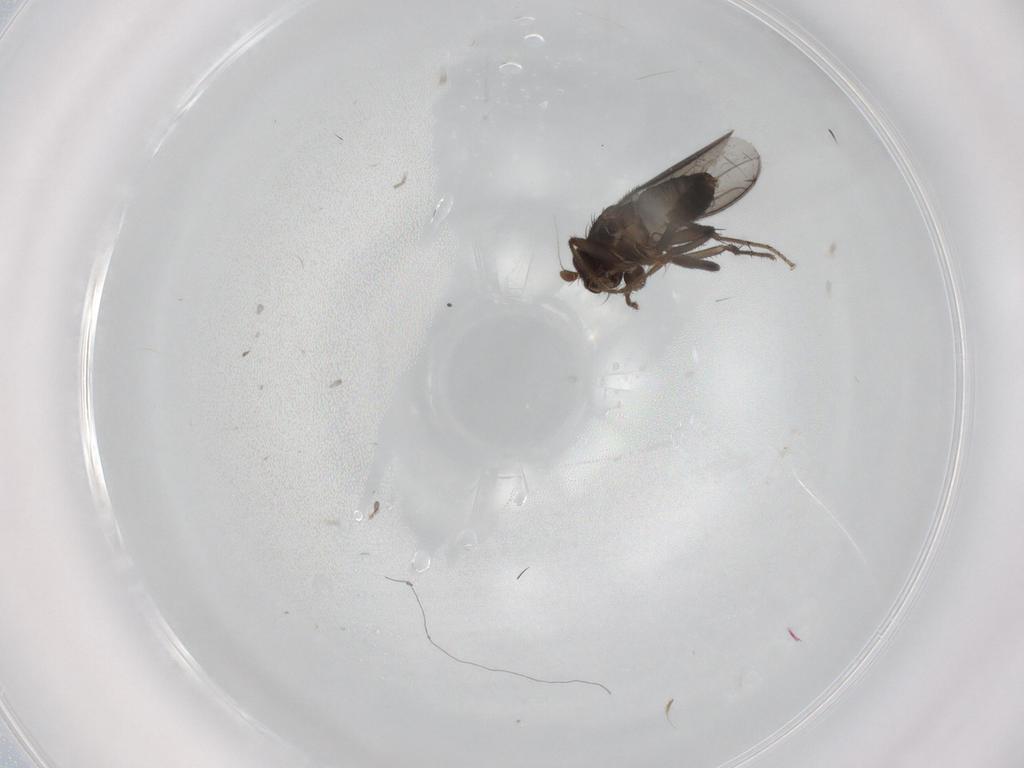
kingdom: Animalia
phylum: Arthropoda
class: Insecta
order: Diptera
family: Sphaeroceridae
